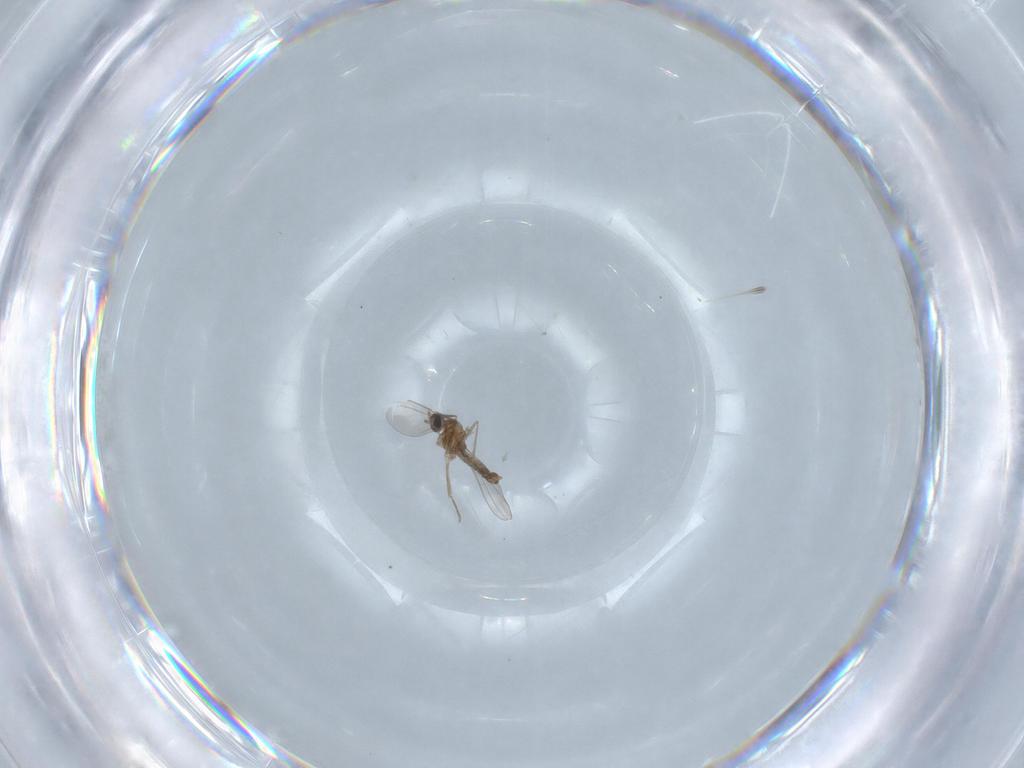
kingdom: Animalia
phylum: Arthropoda
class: Insecta
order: Diptera
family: Cecidomyiidae
